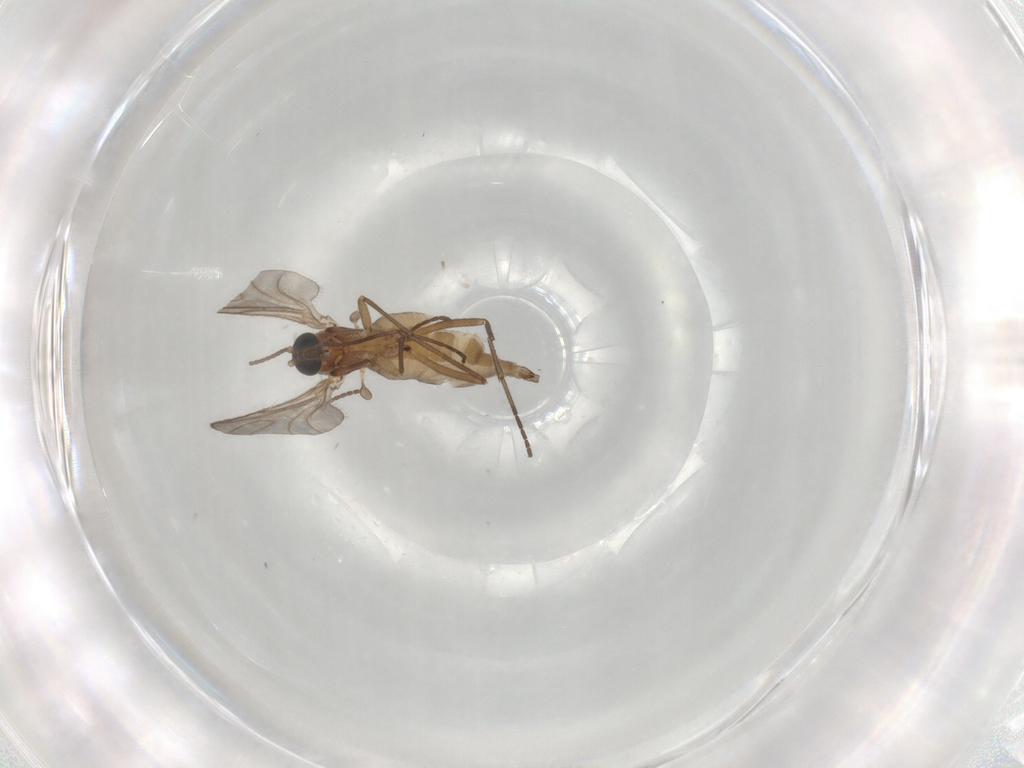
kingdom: Animalia
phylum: Arthropoda
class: Insecta
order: Diptera
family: Sciaridae
